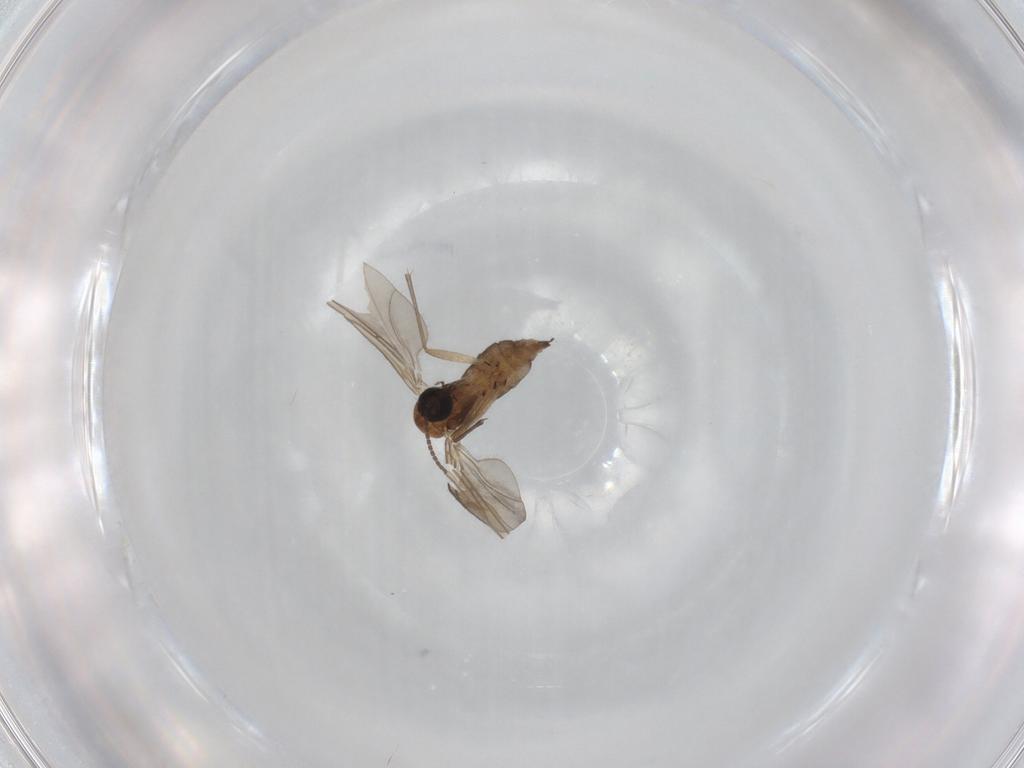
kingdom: Animalia
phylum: Arthropoda
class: Insecta
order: Diptera
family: Sciaridae
